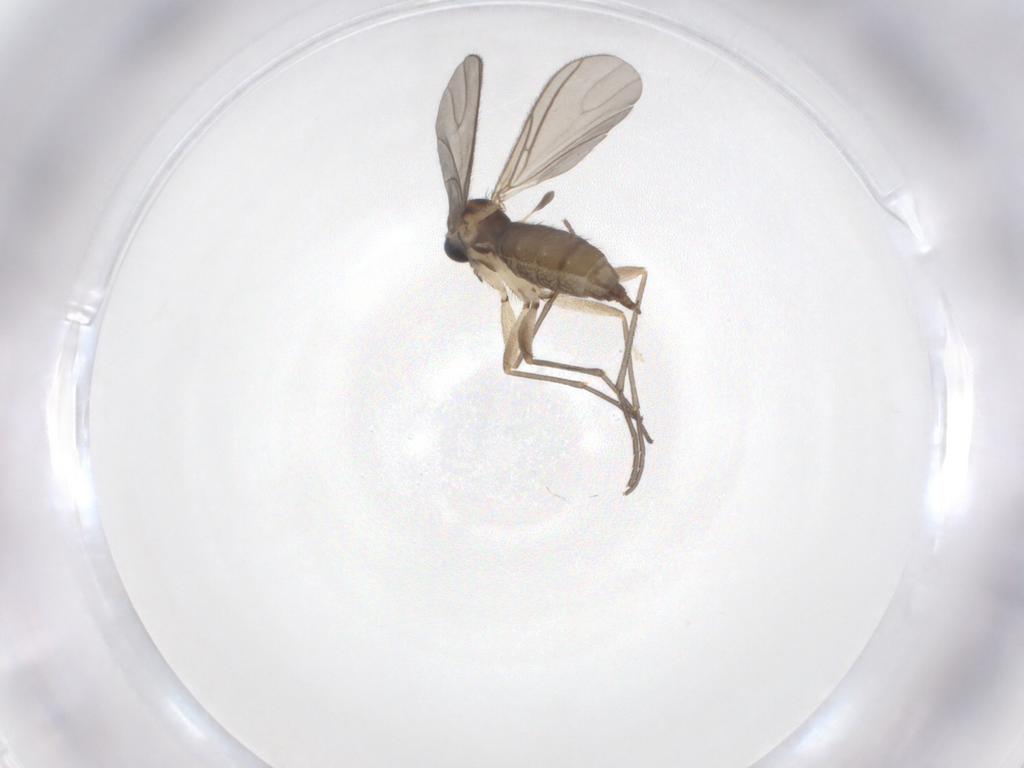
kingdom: Animalia
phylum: Arthropoda
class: Insecta
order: Diptera
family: Sciaridae
